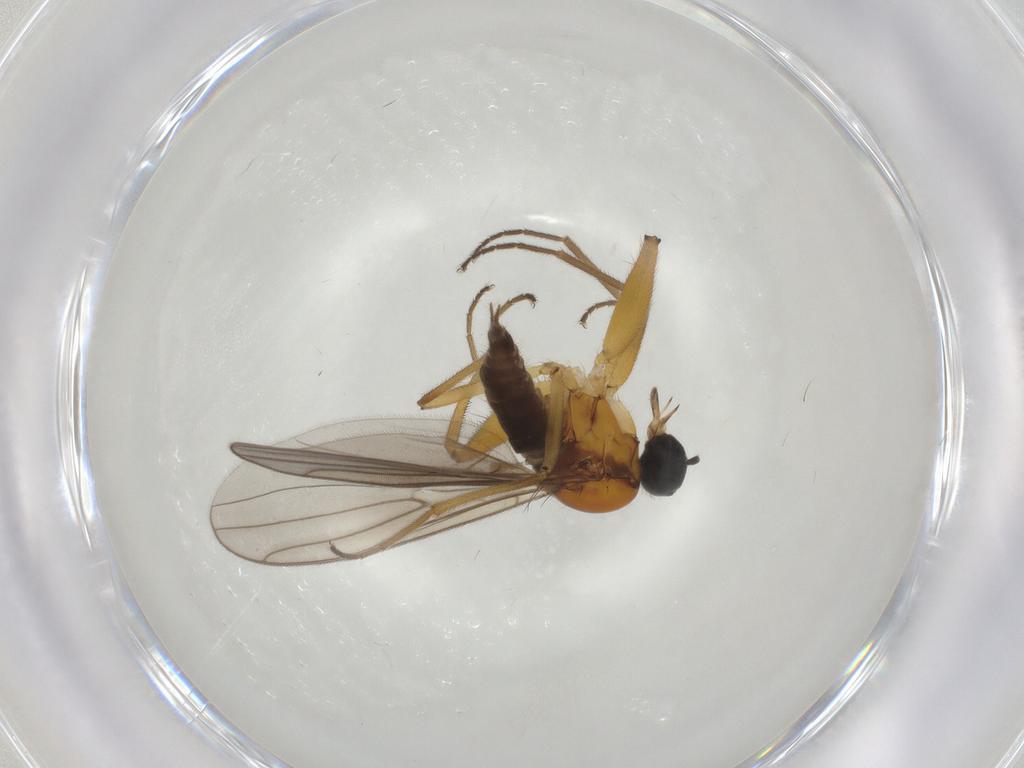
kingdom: Animalia
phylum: Arthropoda
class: Insecta
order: Diptera
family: Hybotidae
